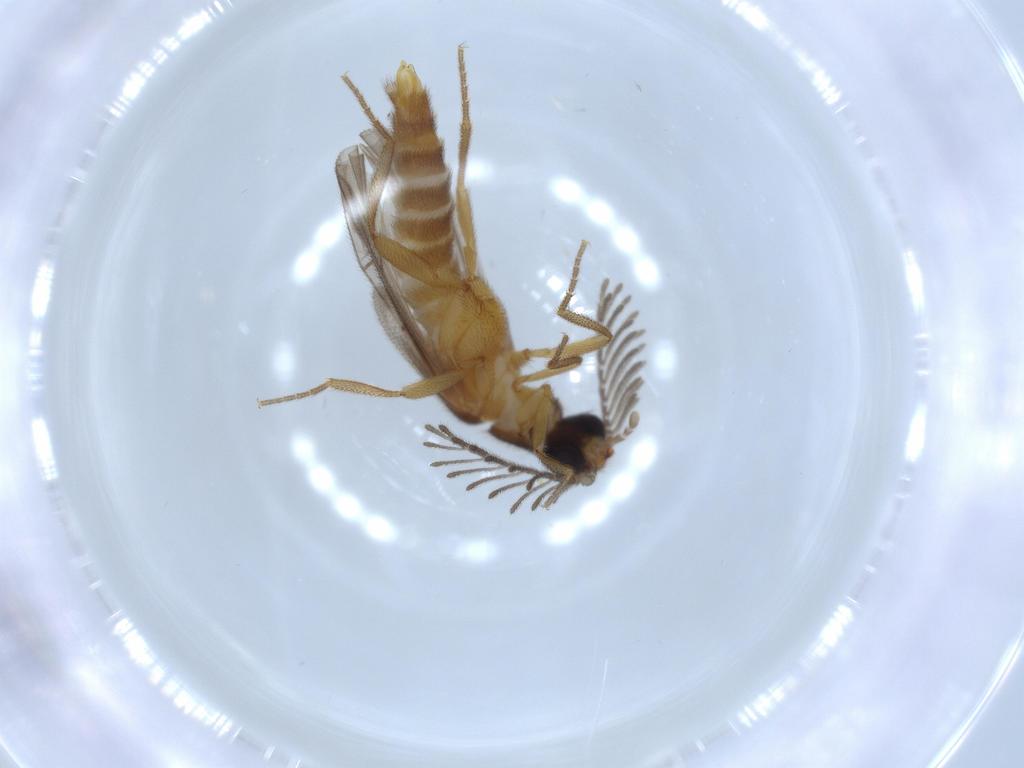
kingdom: Animalia
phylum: Arthropoda
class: Insecta
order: Coleoptera
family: Chrysomelidae
